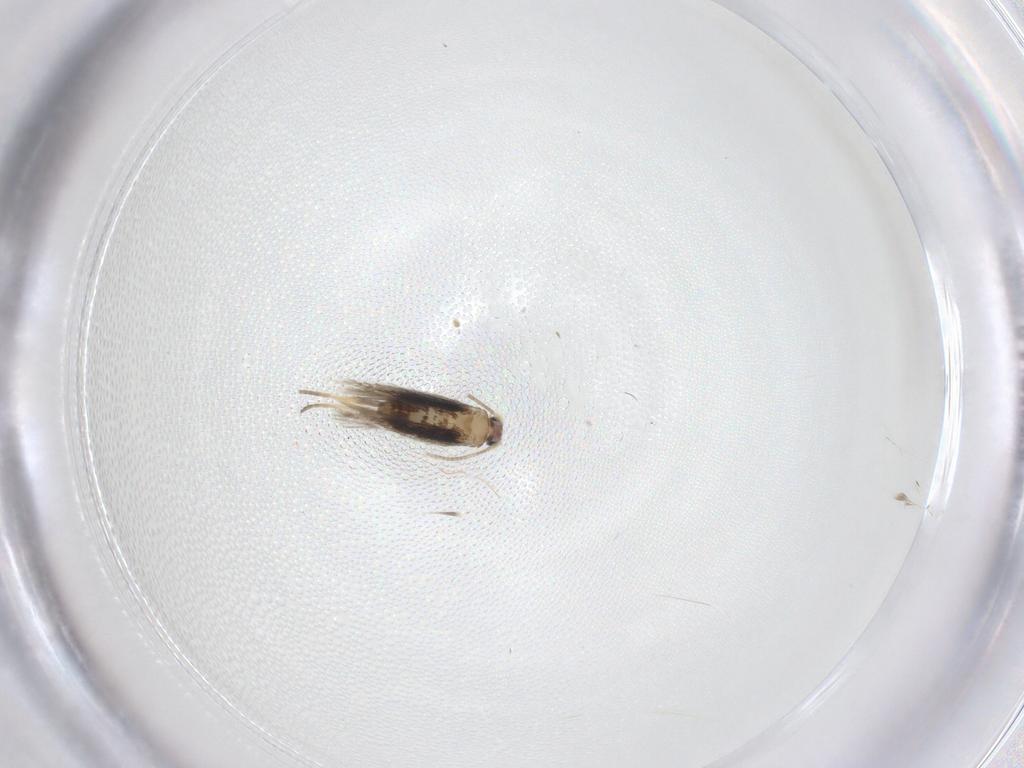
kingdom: Animalia
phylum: Arthropoda
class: Insecta
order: Lepidoptera
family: Nepticulidae
